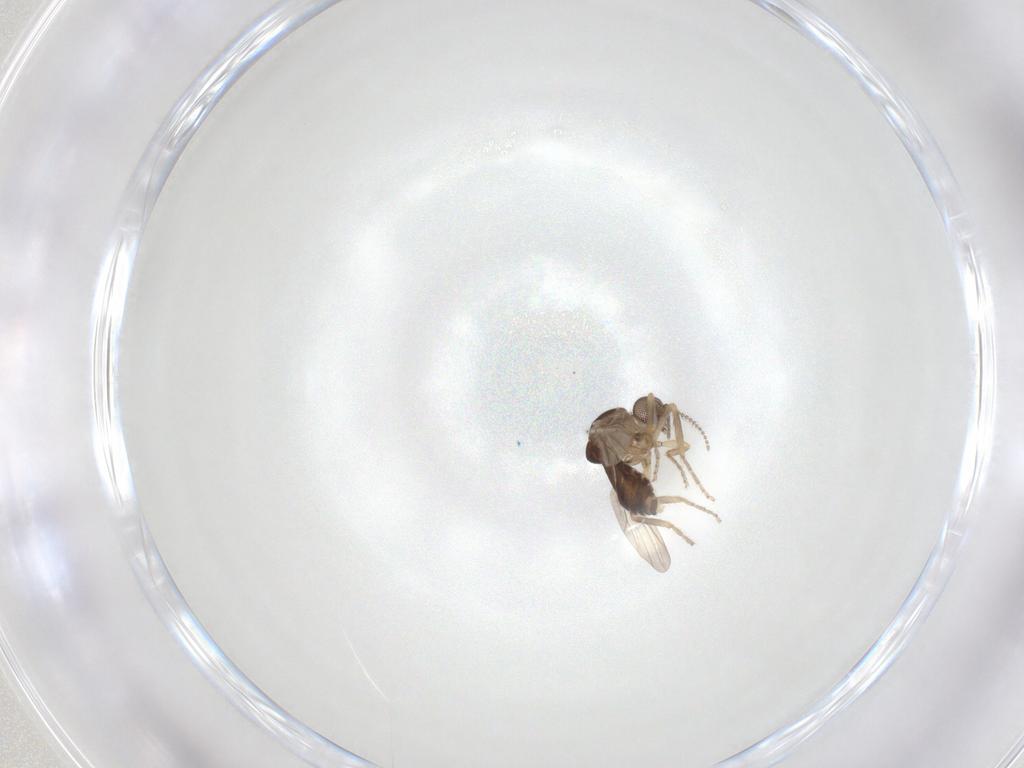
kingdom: Animalia
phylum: Arthropoda
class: Insecta
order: Diptera
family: Ceratopogonidae
